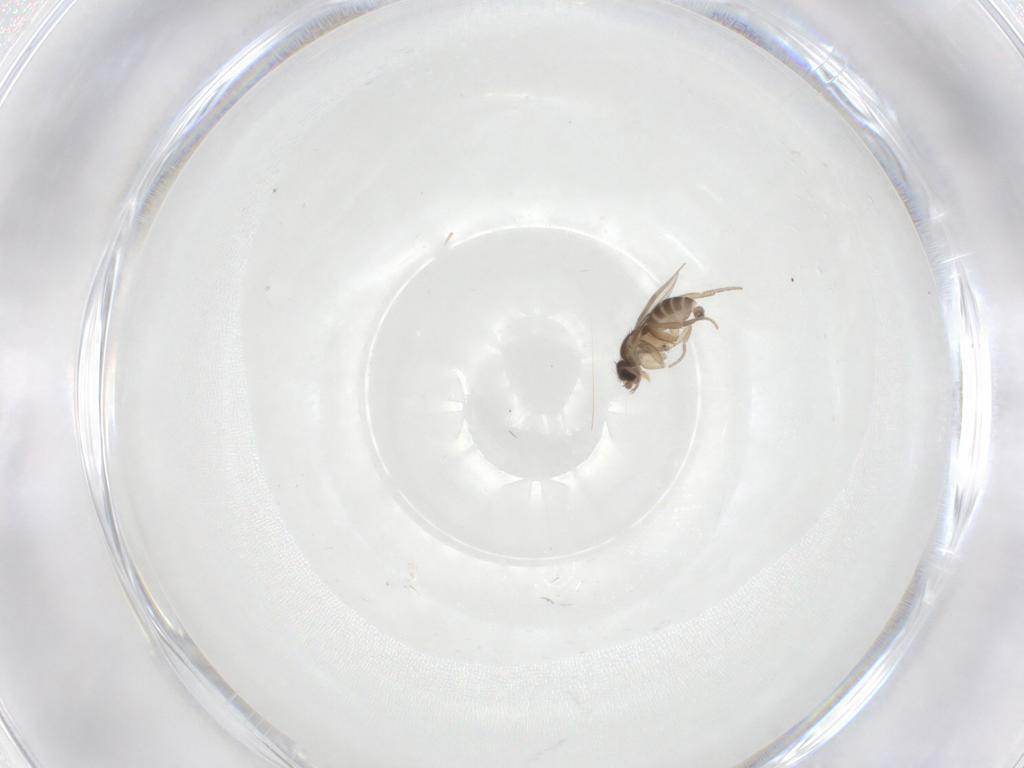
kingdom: Animalia
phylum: Arthropoda
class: Insecta
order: Diptera
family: Phoridae
